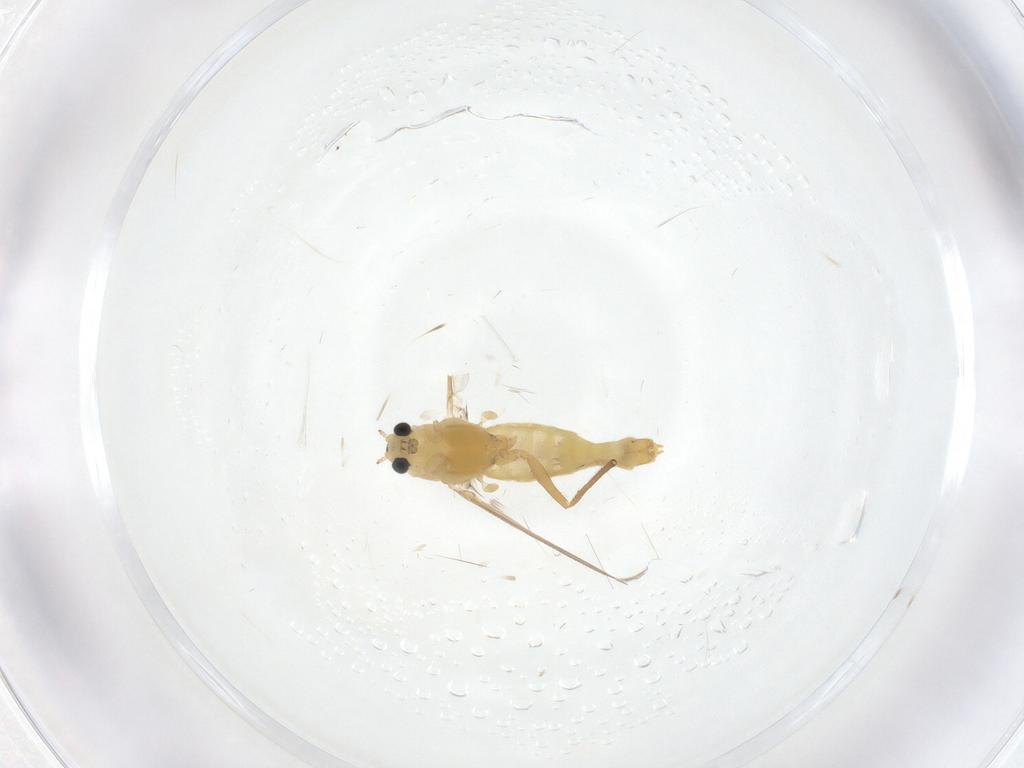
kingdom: Animalia
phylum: Arthropoda
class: Insecta
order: Diptera
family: Chironomidae
